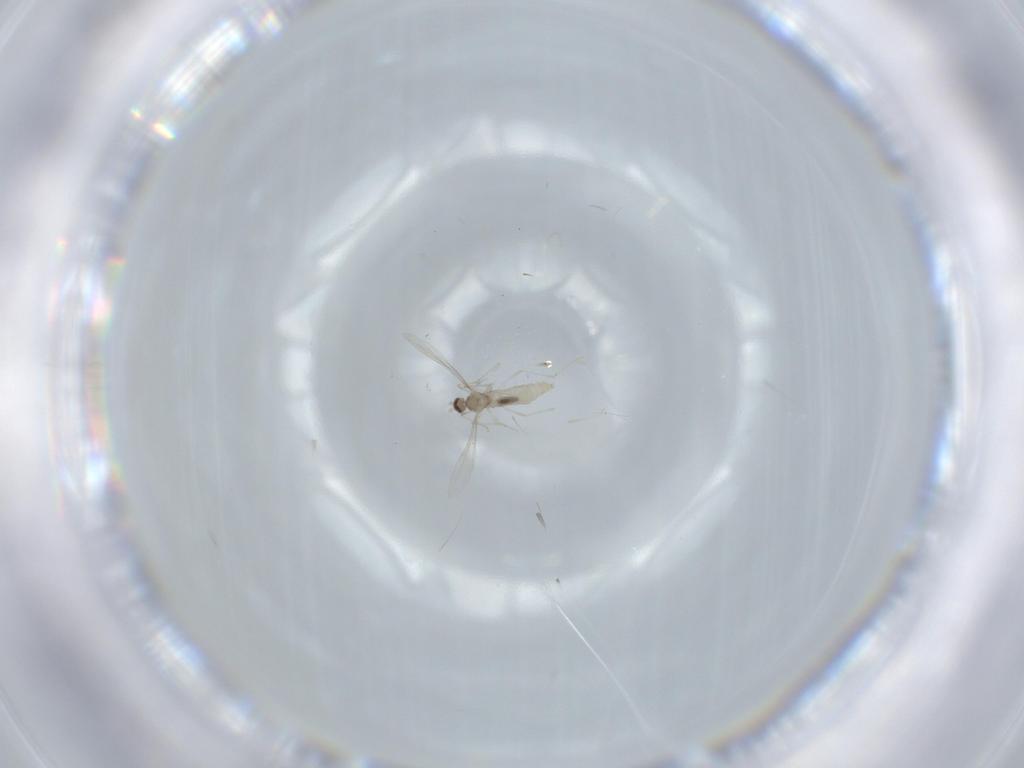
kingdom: Animalia
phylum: Arthropoda
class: Insecta
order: Diptera
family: Cecidomyiidae
